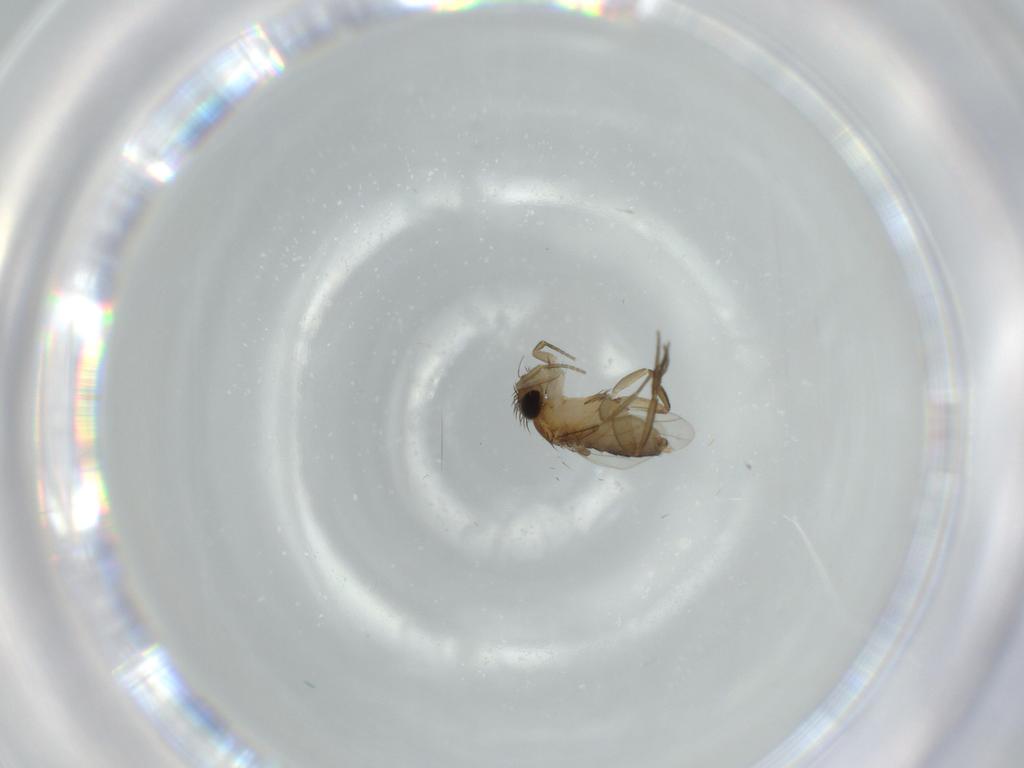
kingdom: Animalia
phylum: Arthropoda
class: Insecta
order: Diptera
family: Phoridae
